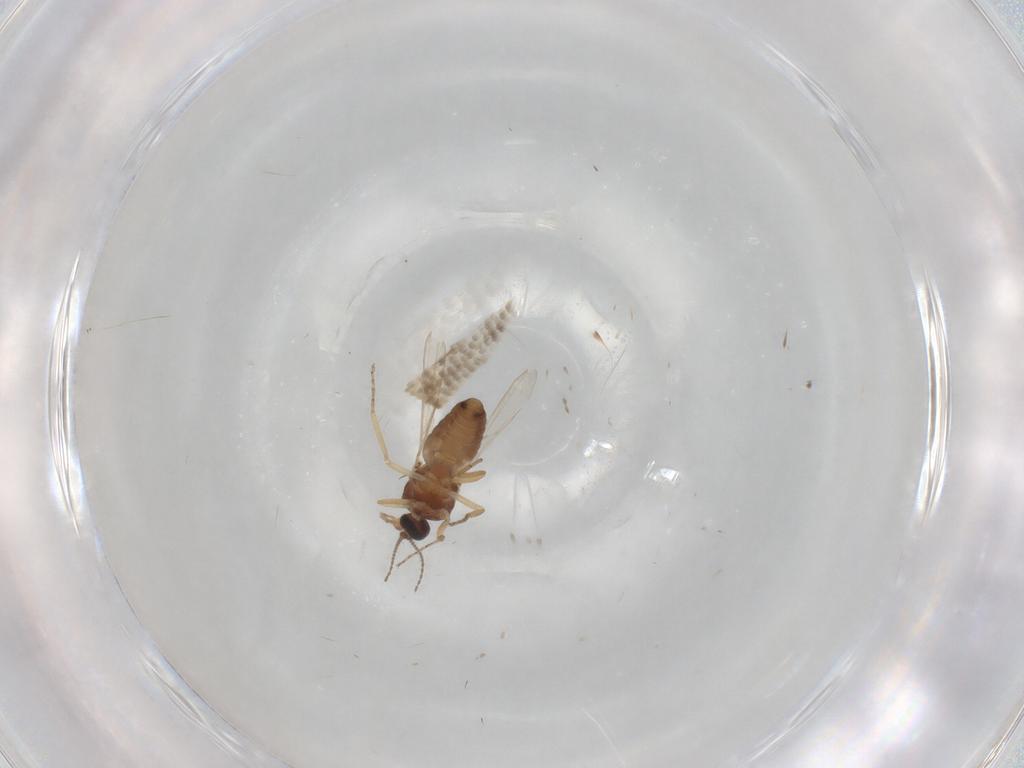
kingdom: Animalia
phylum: Arthropoda
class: Insecta
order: Diptera
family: Ceratopogonidae
